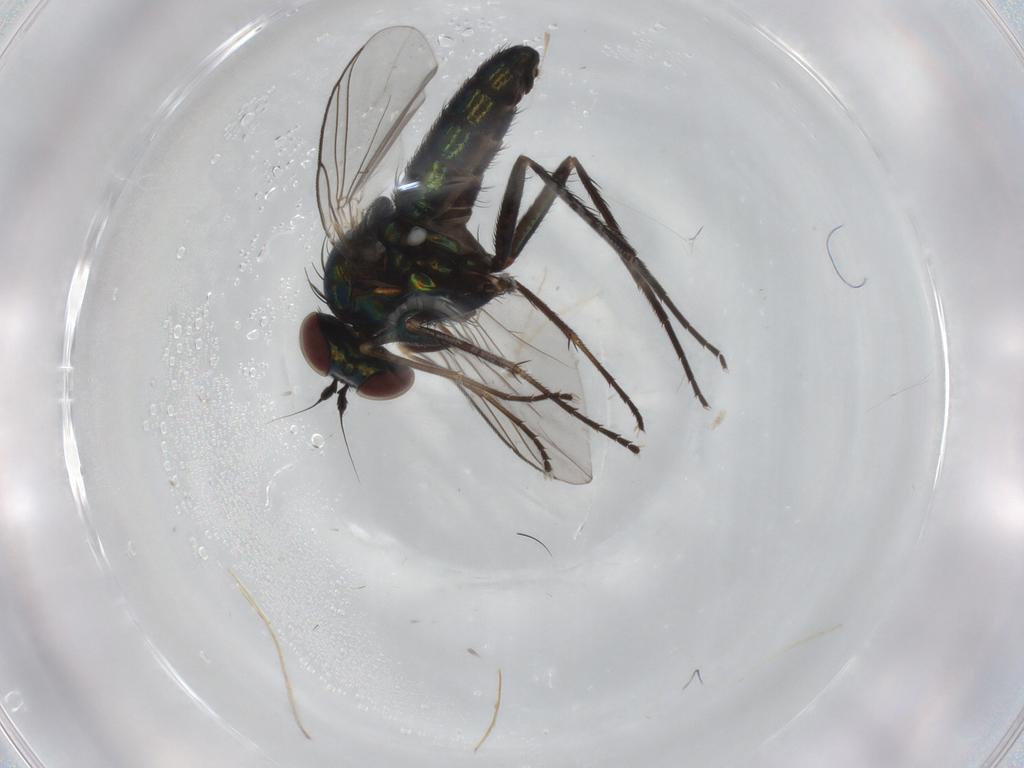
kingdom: Animalia
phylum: Arthropoda
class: Insecta
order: Diptera
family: Dolichopodidae
